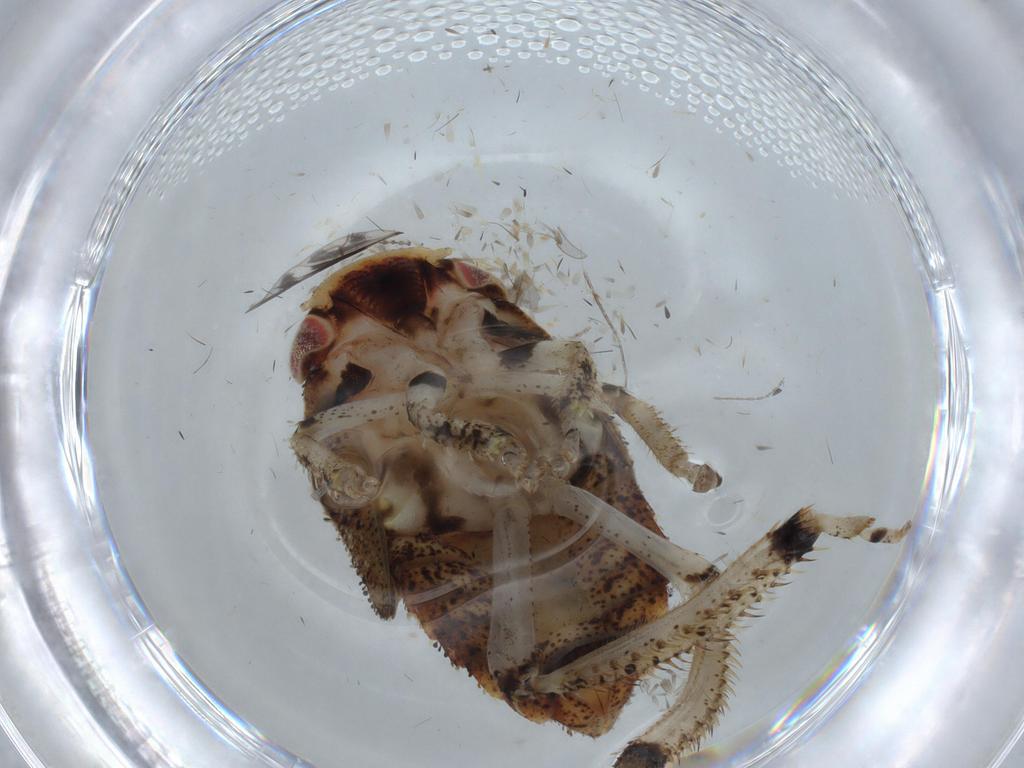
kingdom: Animalia
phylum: Arthropoda
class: Insecta
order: Hemiptera
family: Cicadellidae
